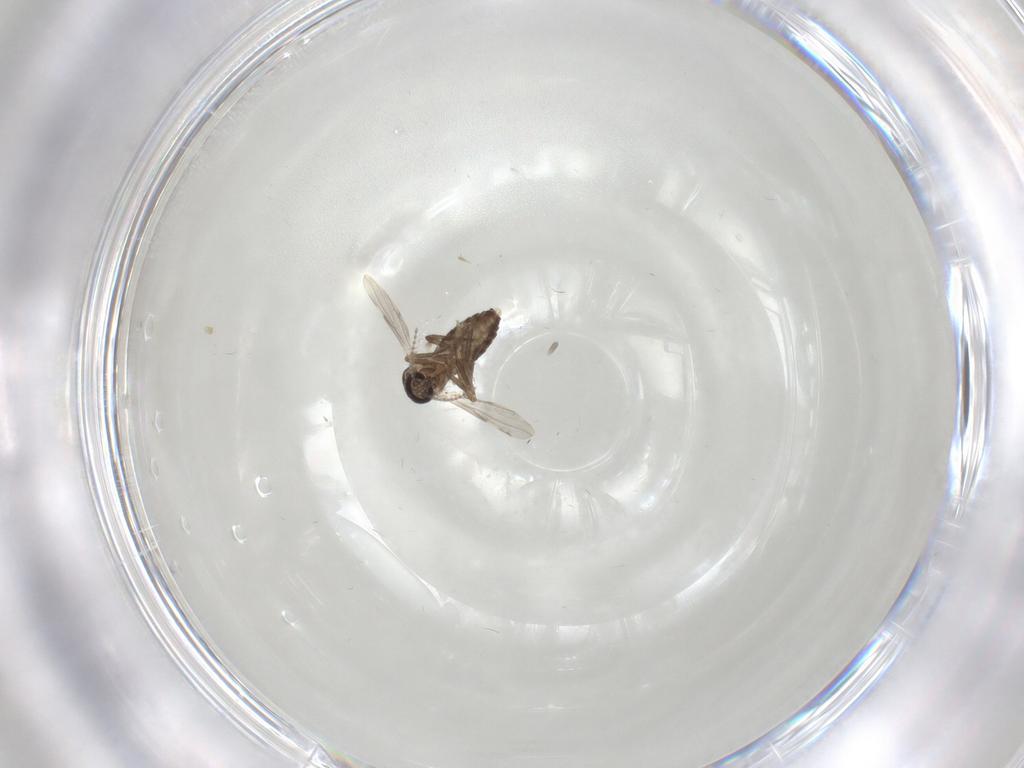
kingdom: Animalia
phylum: Arthropoda
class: Insecta
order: Diptera
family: Ceratopogonidae
